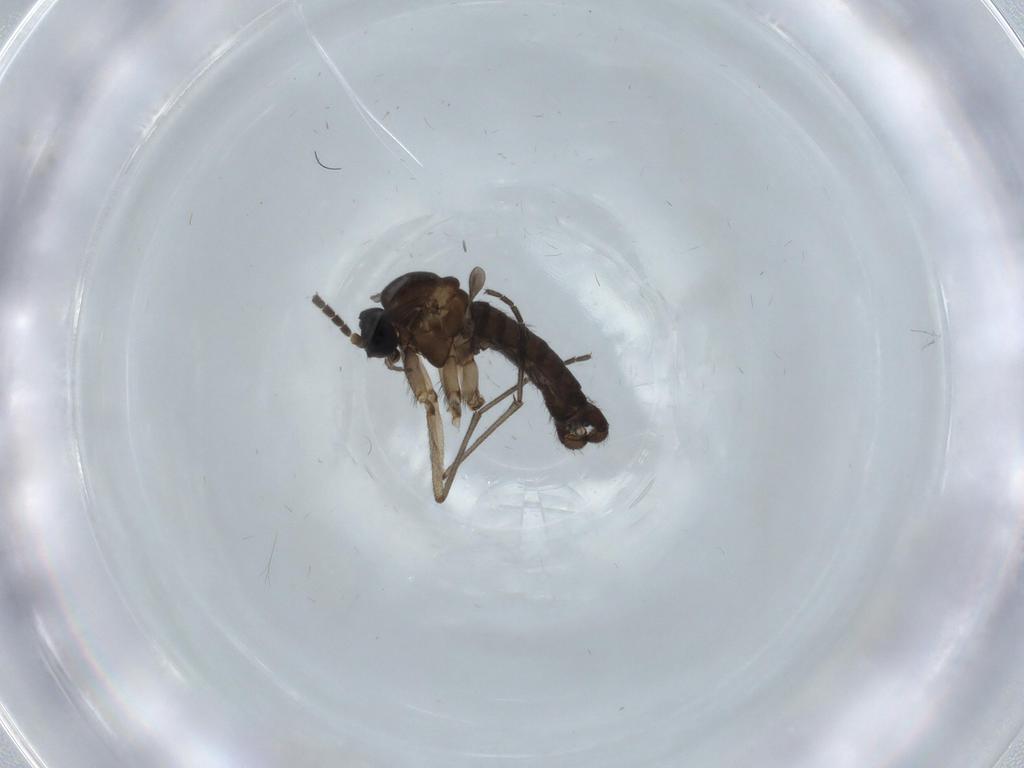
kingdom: Animalia
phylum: Arthropoda
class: Insecta
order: Diptera
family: Sciaridae
